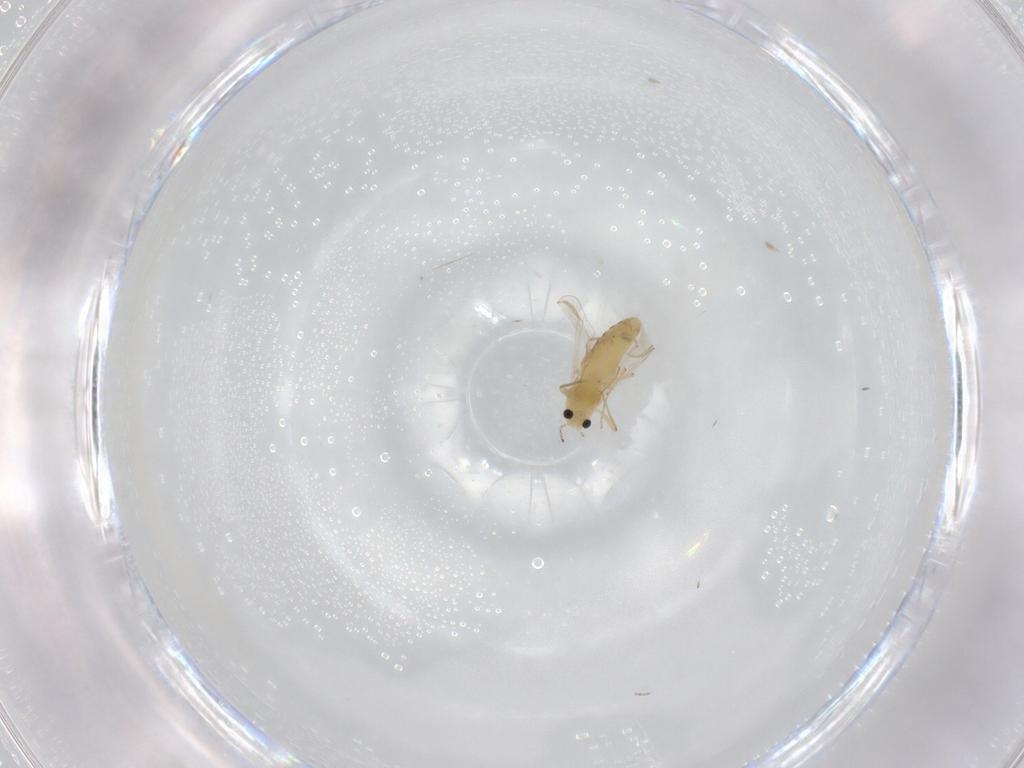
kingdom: Animalia
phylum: Arthropoda
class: Insecta
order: Diptera
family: Chironomidae
